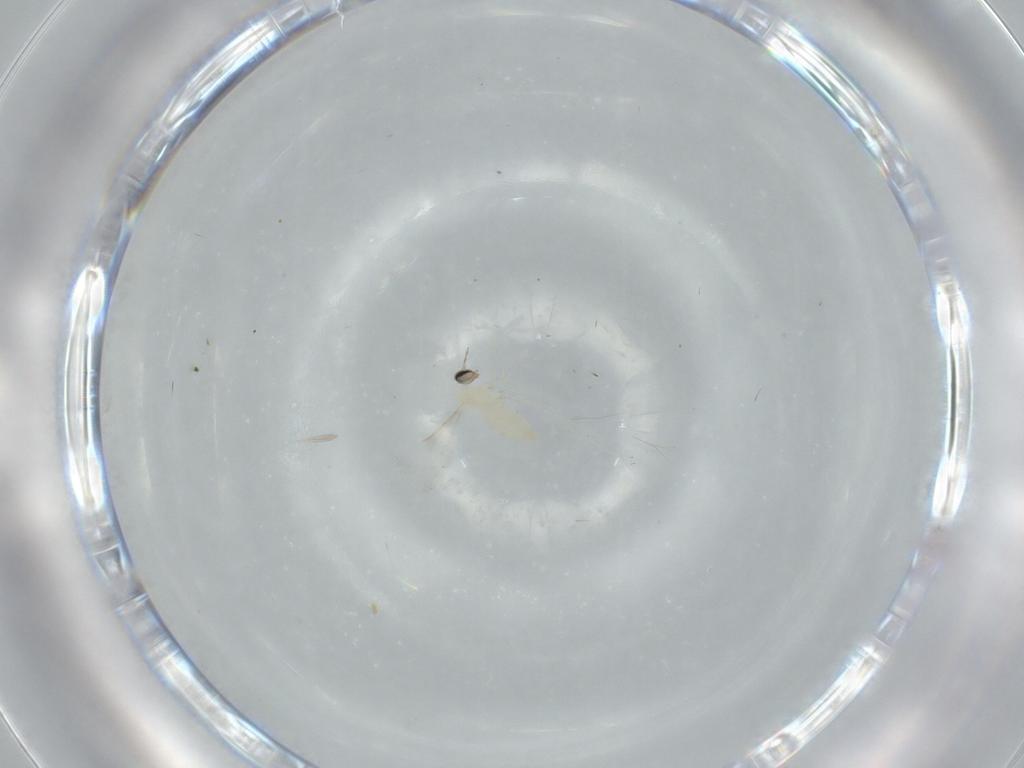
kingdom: Animalia
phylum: Arthropoda
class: Insecta
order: Diptera
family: Cecidomyiidae
